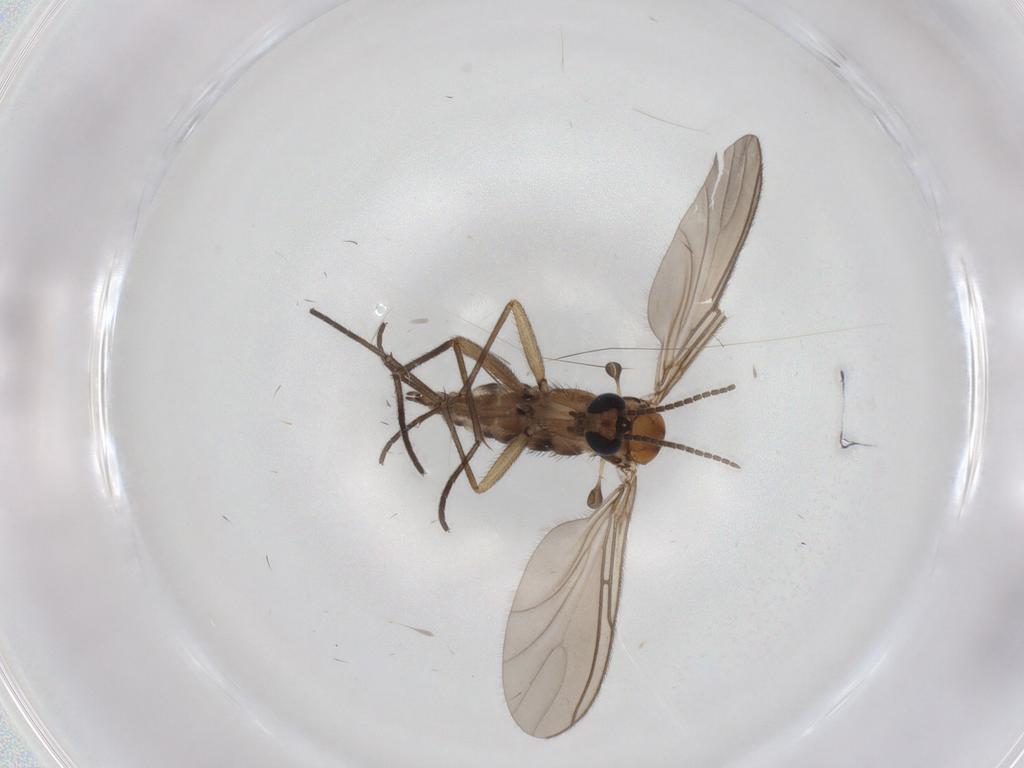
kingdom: Animalia
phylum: Arthropoda
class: Insecta
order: Diptera
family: Sciaridae
